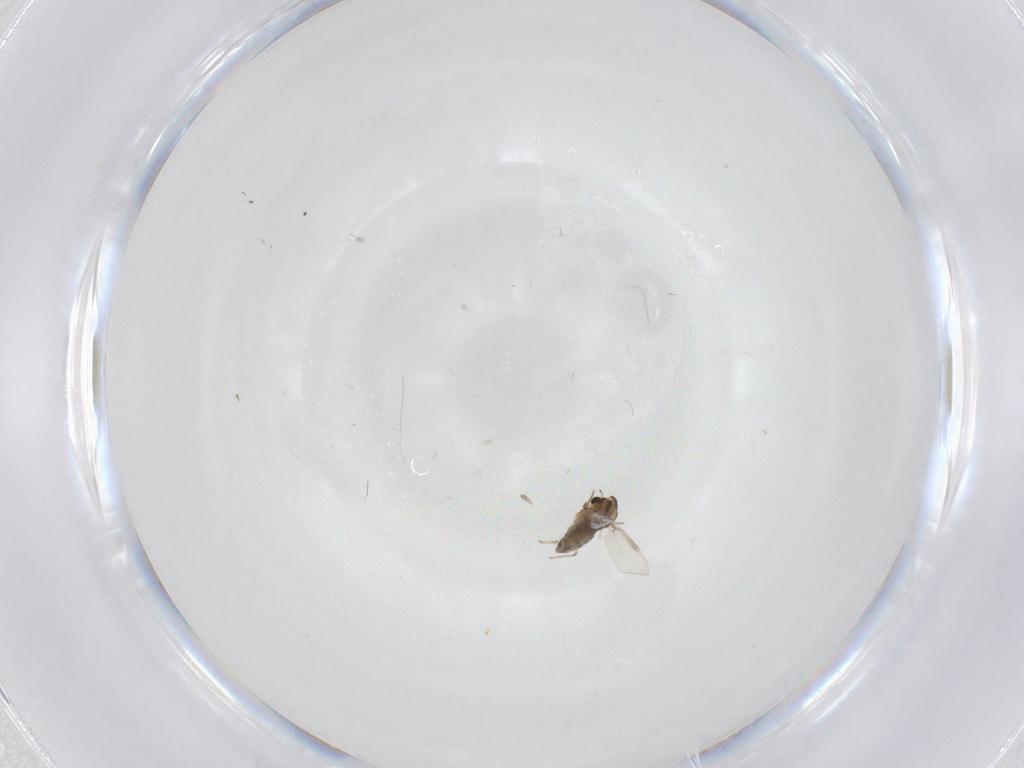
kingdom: Animalia
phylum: Arthropoda
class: Insecta
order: Diptera
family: Chironomidae
